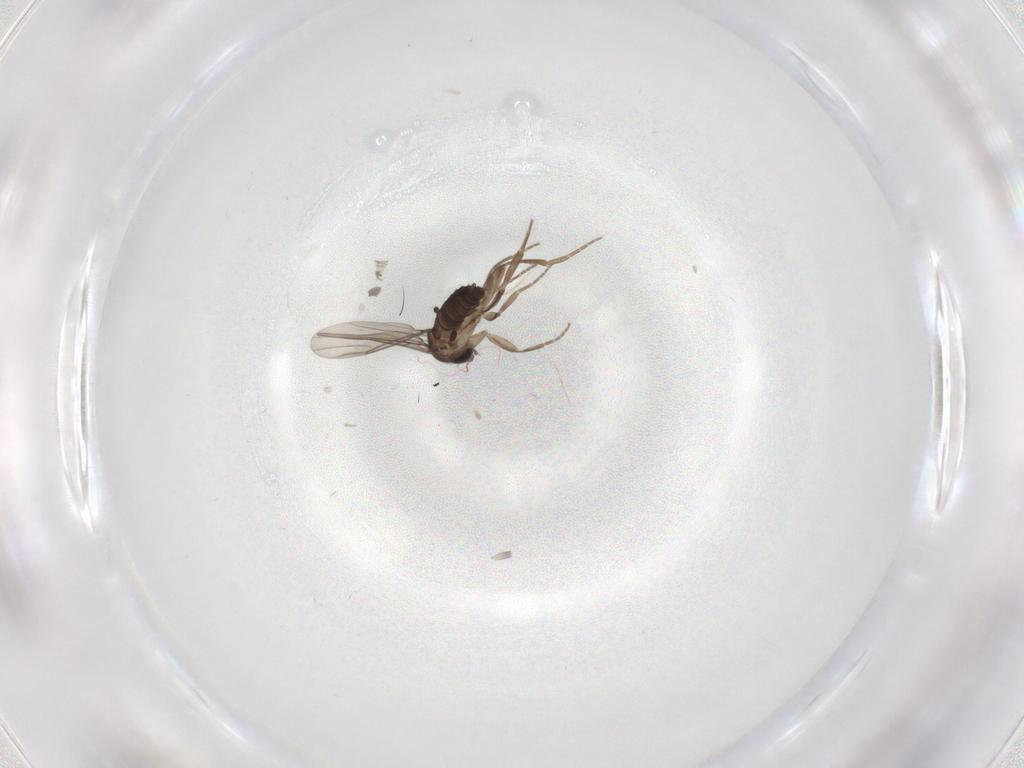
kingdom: Animalia
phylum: Arthropoda
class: Insecta
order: Diptera
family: Phoridae
